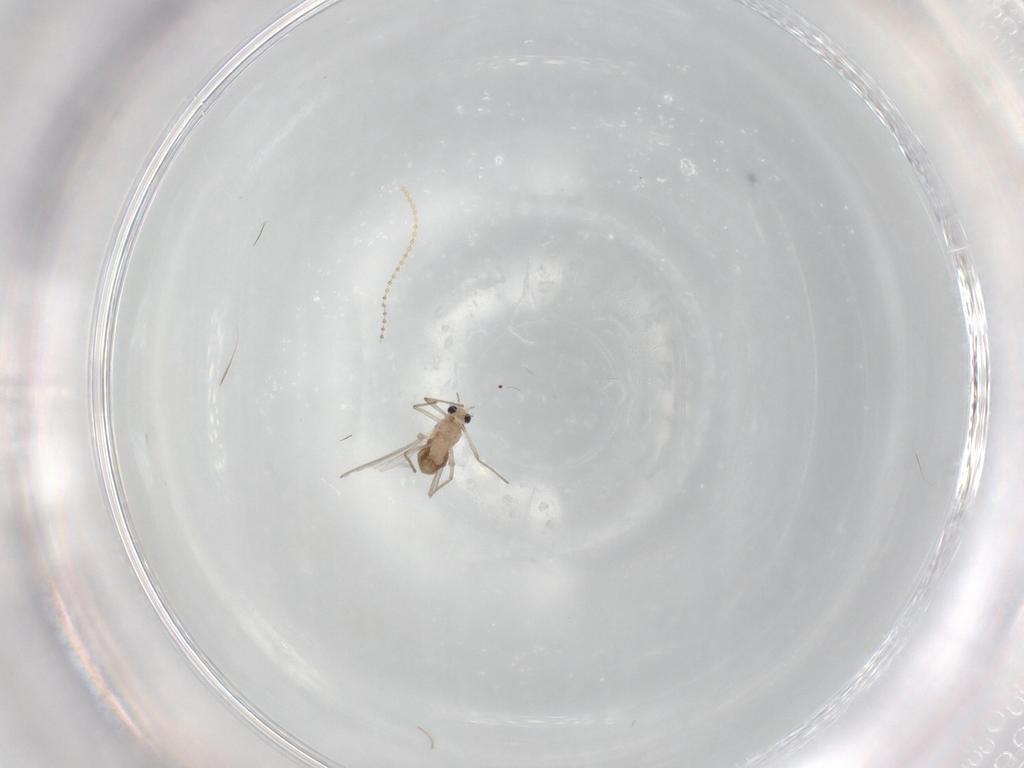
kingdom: Animalia
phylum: Arthropoda
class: Insecta
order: Diptera
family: Chironomidae
